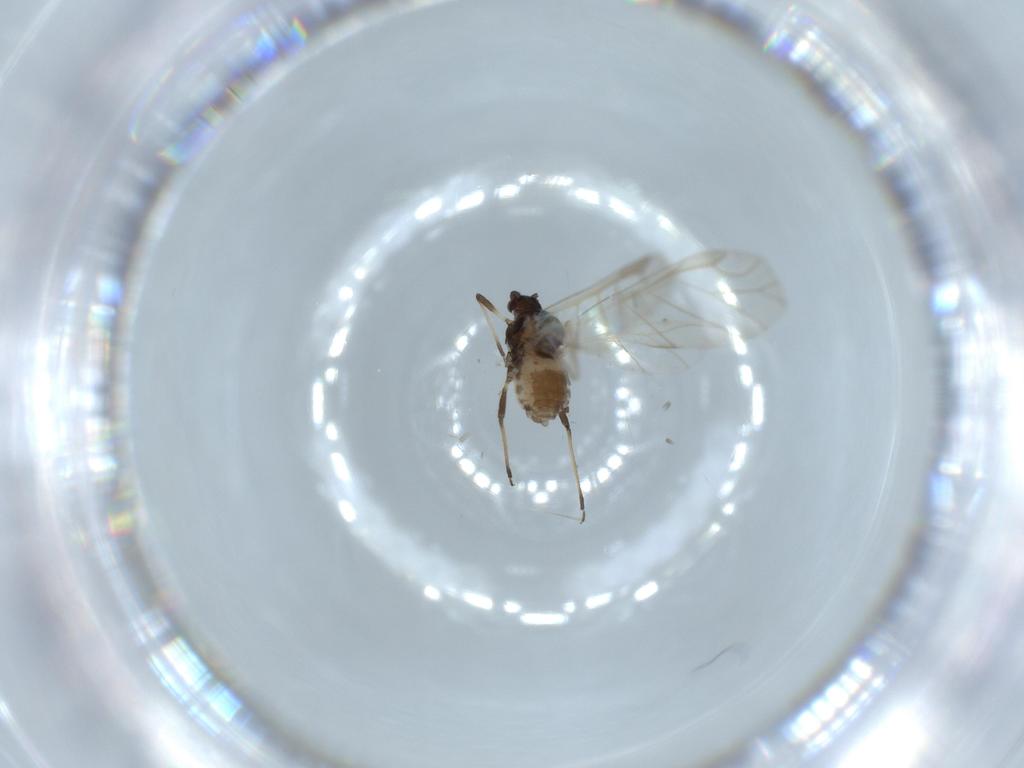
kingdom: Animalia
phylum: Arthropoda
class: Insecta
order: Hemiptera
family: Aphididae
